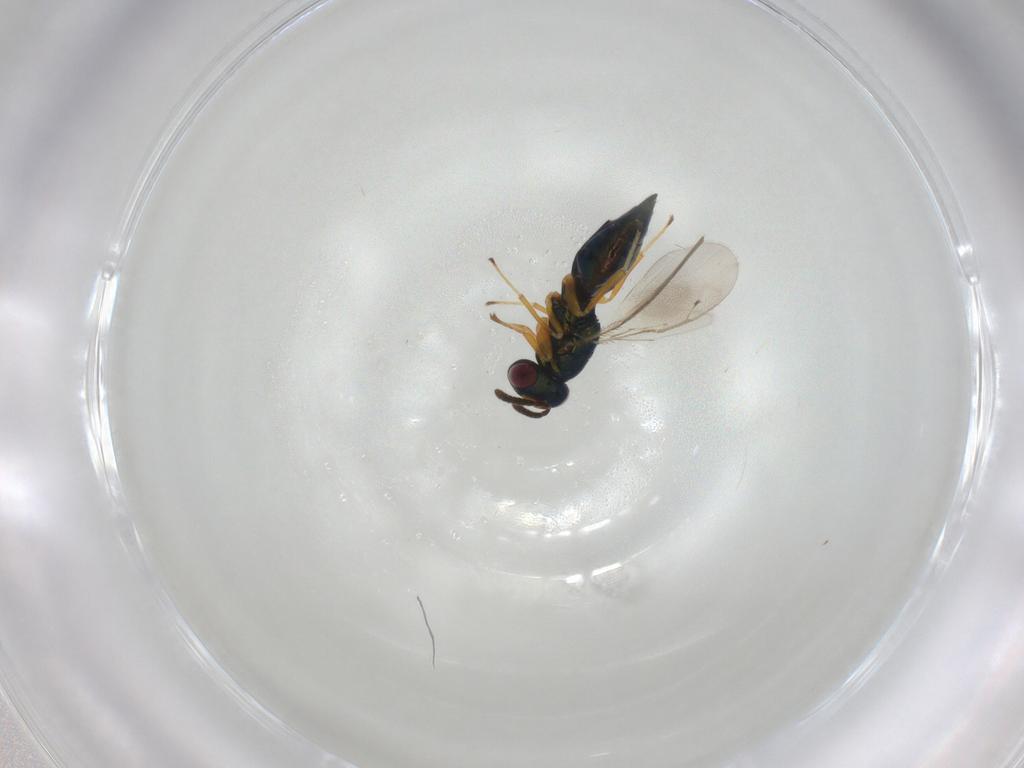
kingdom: Animalia
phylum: Arthropoda
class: Insecta
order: Hymenoptera
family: Pteromalidae
